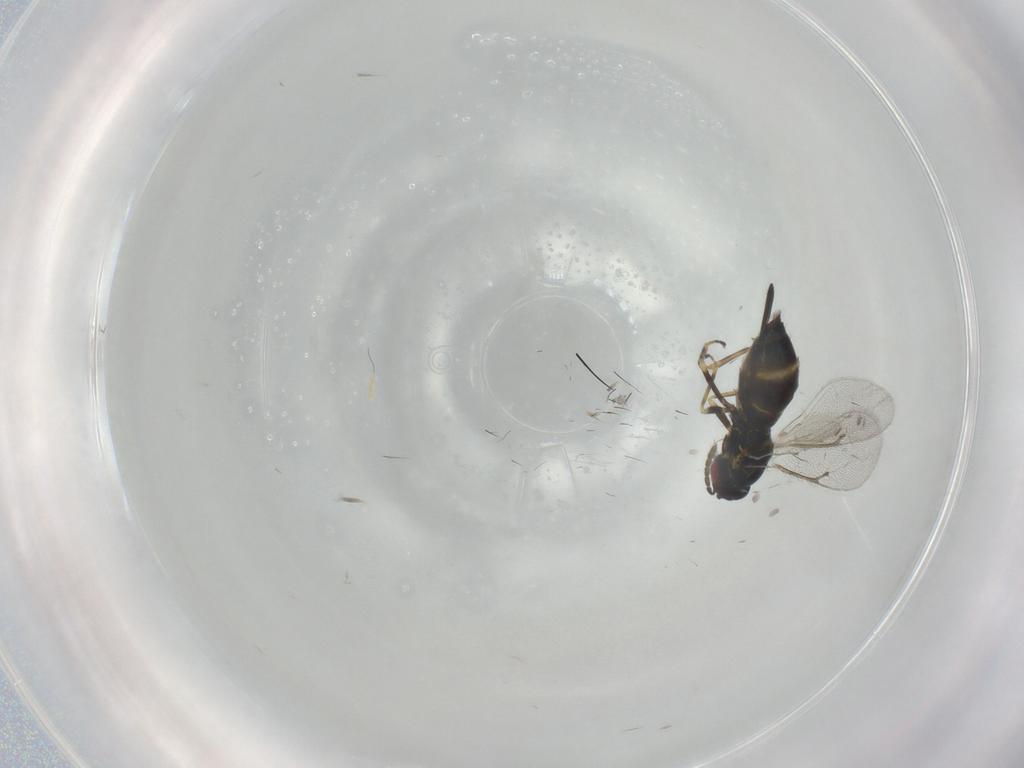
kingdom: Animalia
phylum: Arthropoda
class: Insecta
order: Hymenoptera
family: Eulophidae
